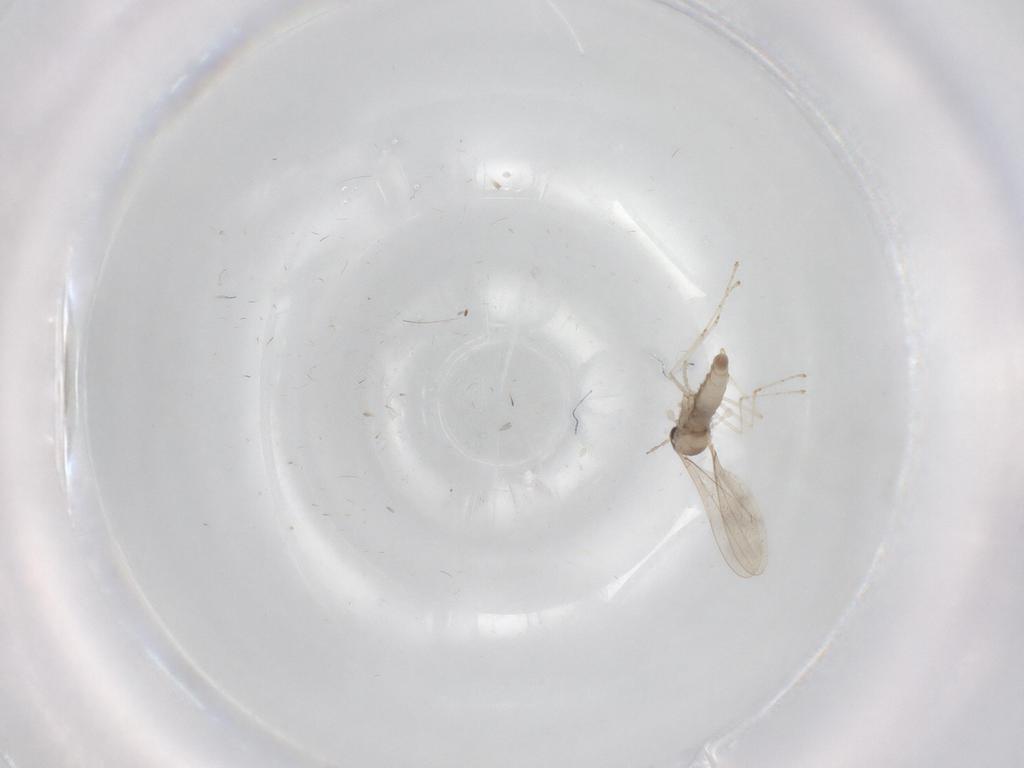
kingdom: Animalia
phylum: Arthropoda
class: Insecta
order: Diptera
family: Cecidomyiidae
